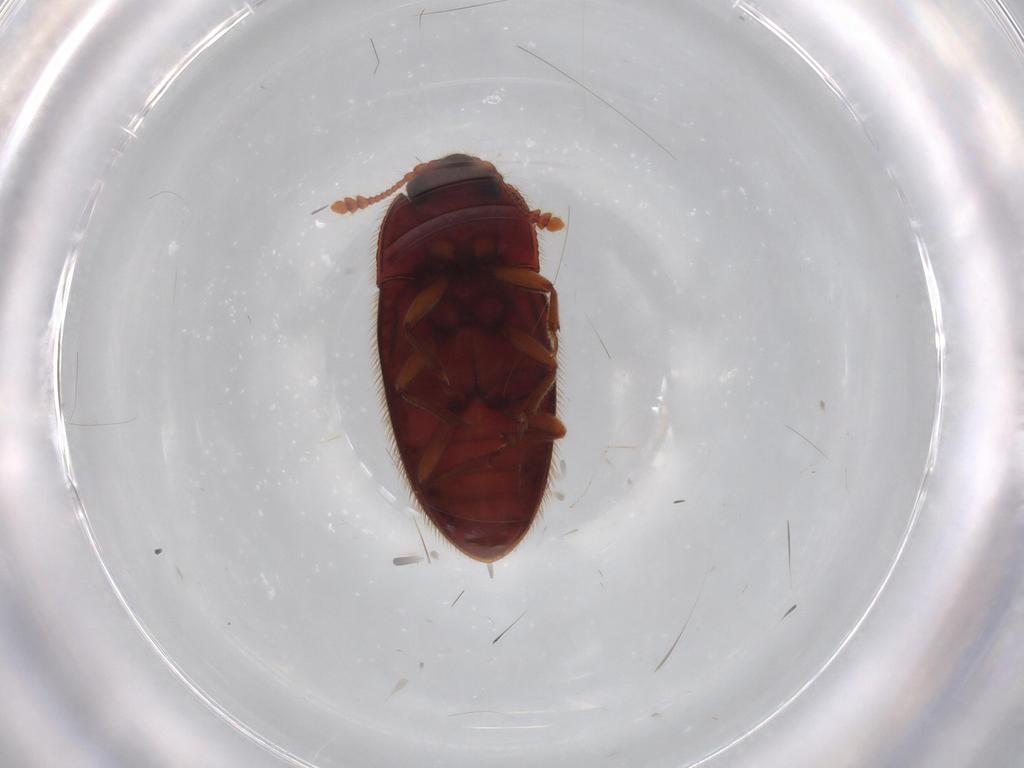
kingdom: Animalia
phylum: Arthropoda
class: Insecta
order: Coleoptera
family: Biphyllidae
